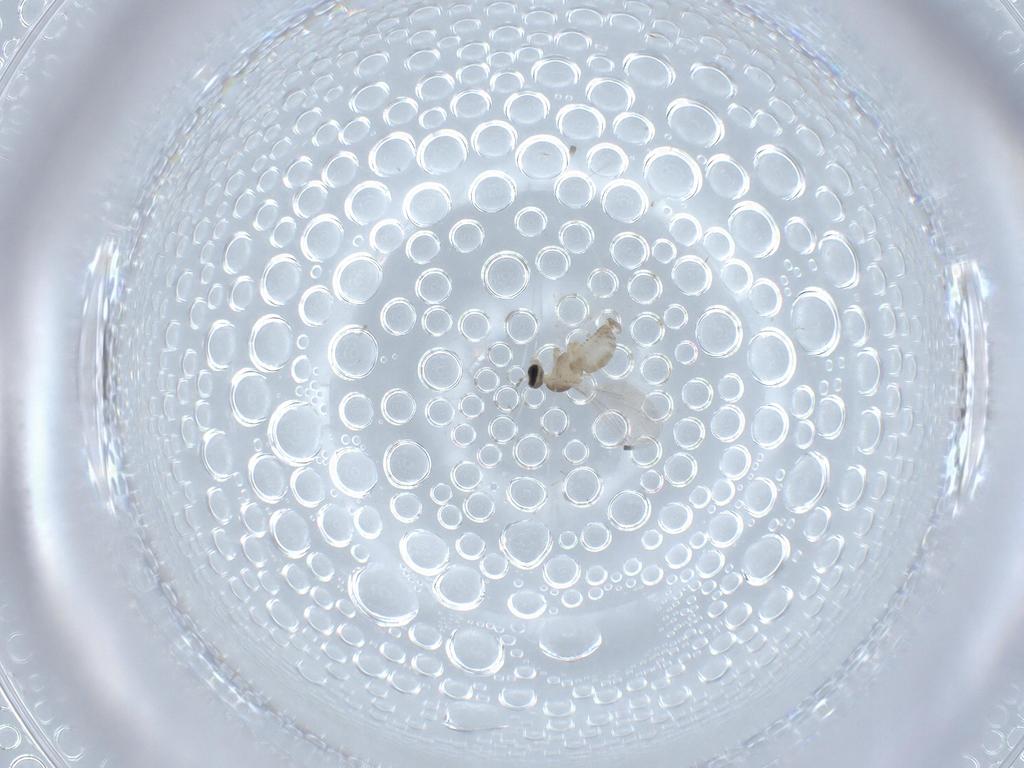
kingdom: Animalia
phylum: Arthropoda
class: Insecta
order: Diptera
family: Cecidomyiidae
